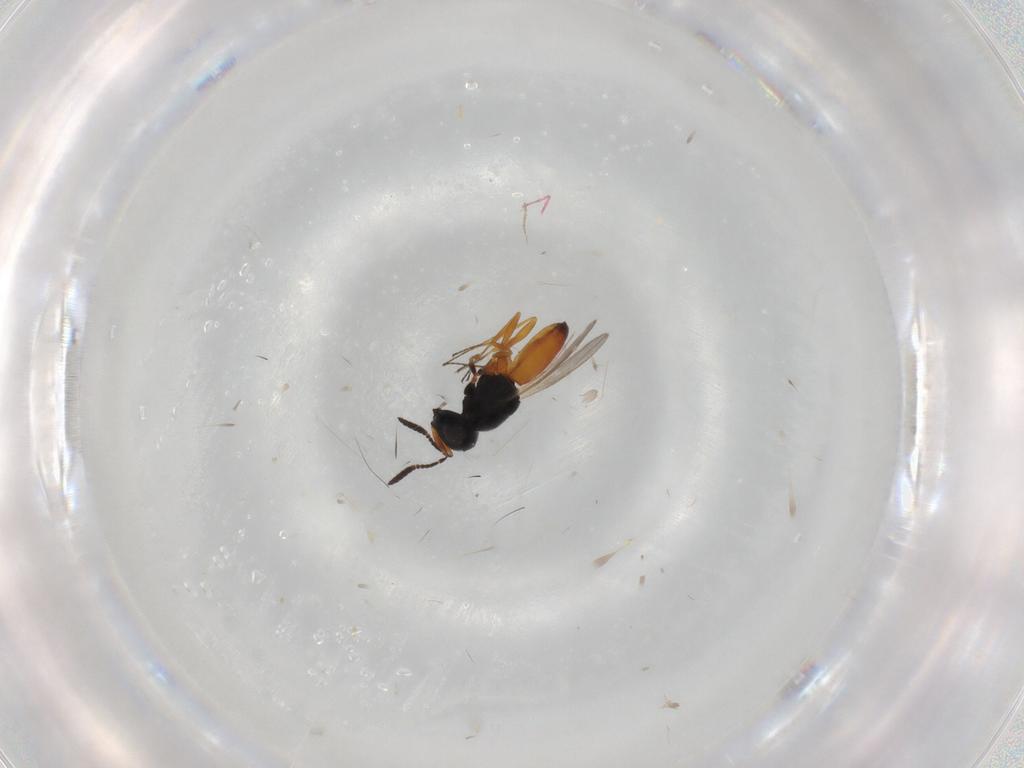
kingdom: Animalia
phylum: Arthropoda
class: Insecta
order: Hymenoptera
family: Scelionidae
